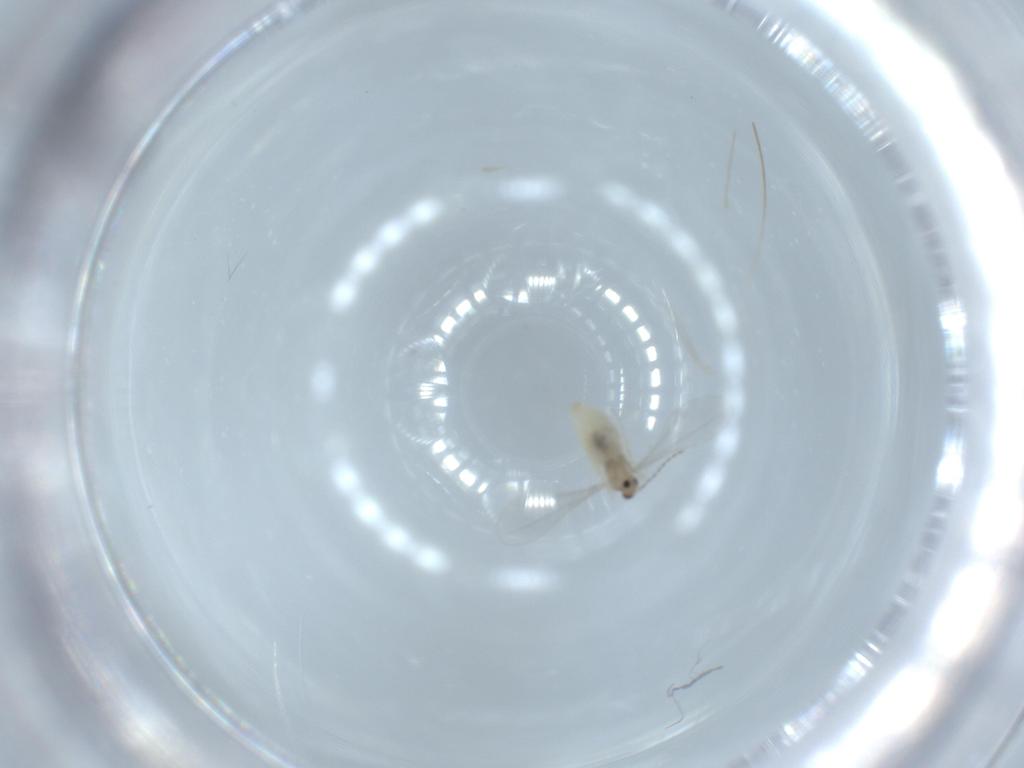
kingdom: Animalia
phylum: Arthropoda
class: Insecta
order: Diptera
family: Cecidomyiidae
